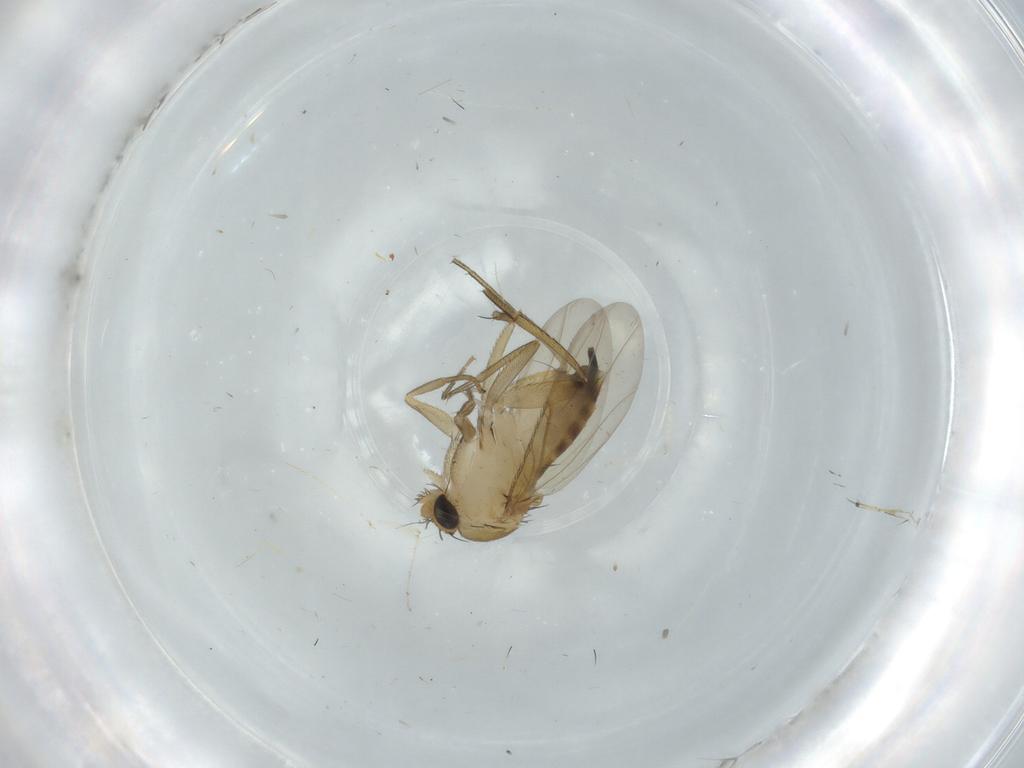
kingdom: Animalia
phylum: Arthropoda
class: Insecta
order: Diptera
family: Phoridae
